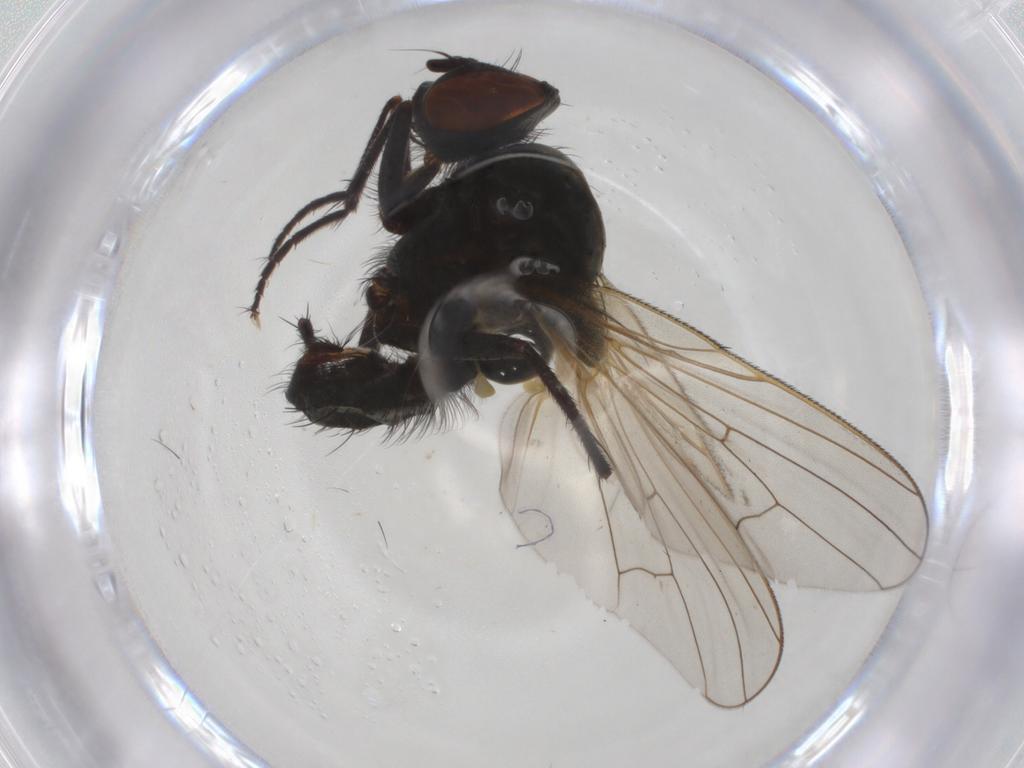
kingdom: Animalia
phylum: Arthropoda
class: Insecta
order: Diptera
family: Chironomidae
